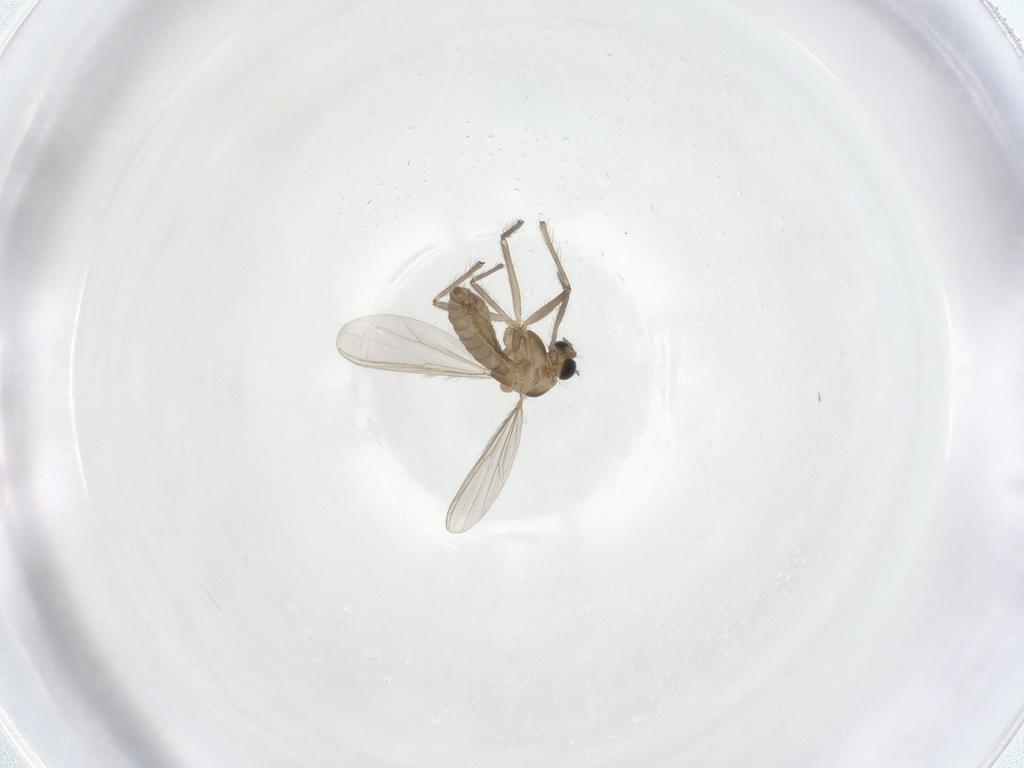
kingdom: Animalia
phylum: Arthropoda
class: Insecta
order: Diptera
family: Chironomidae
